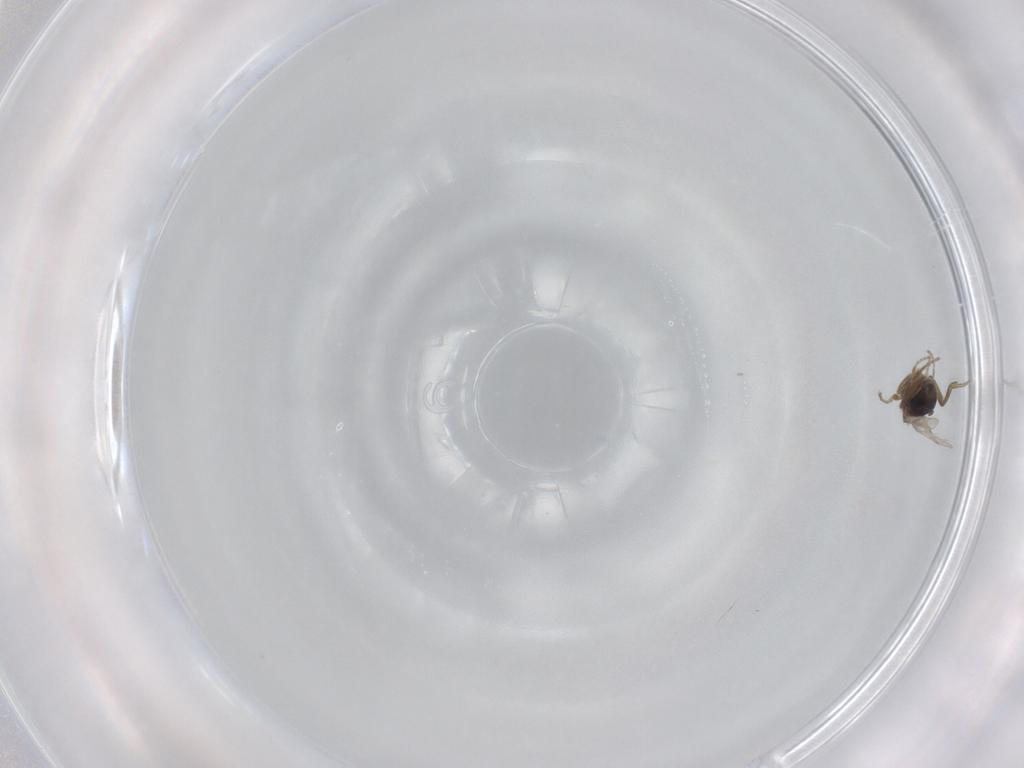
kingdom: Animalia
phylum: Arthropoda
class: Insecta
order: Diptera
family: Phoridae
